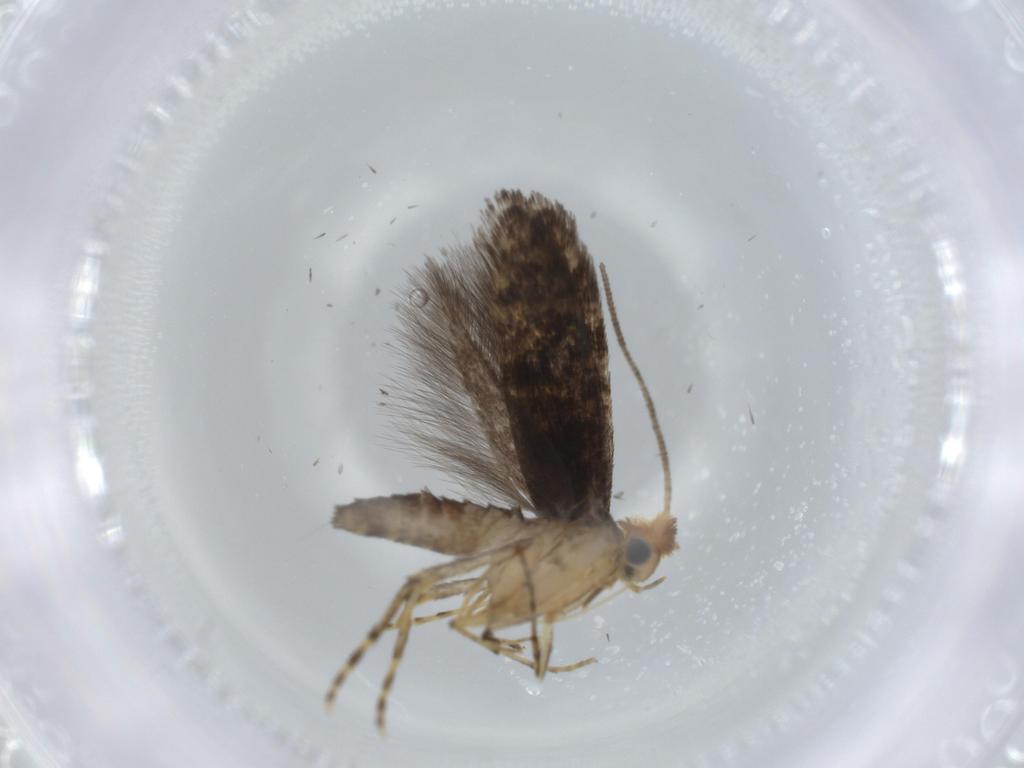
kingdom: Animalia
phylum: Arthropoda
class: Insecta
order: Lepidoptera
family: Argyresthiidae
